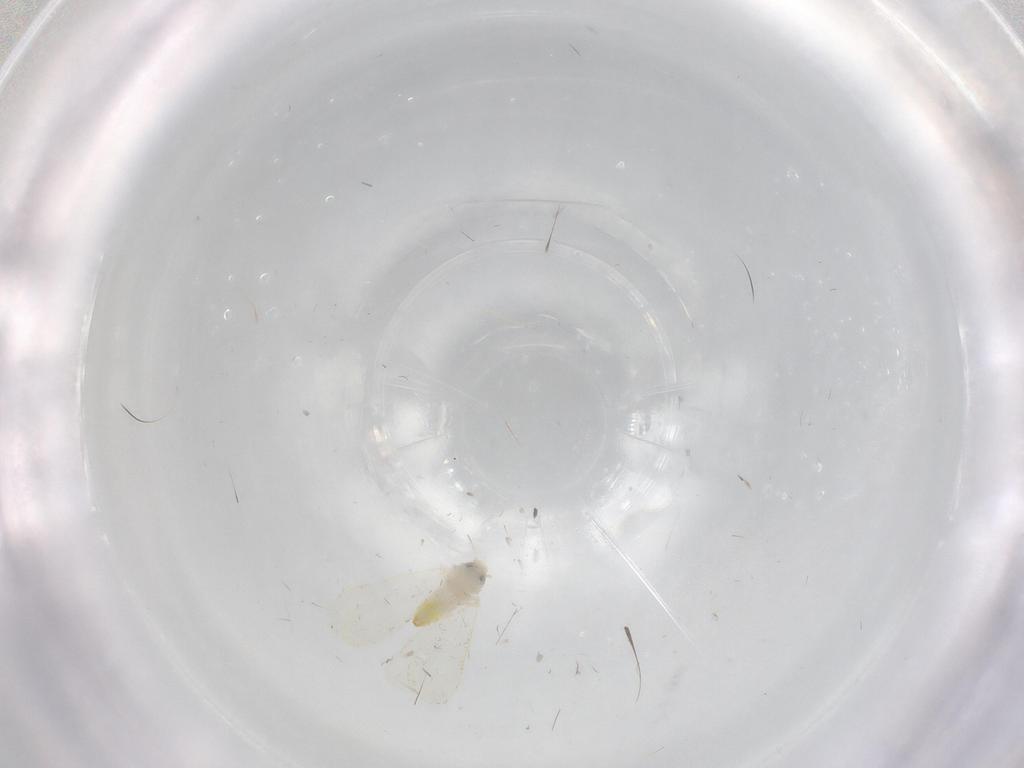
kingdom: Animalia
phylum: Arthropoda
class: Insecta
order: Hemiptera
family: Aleyrodidae
